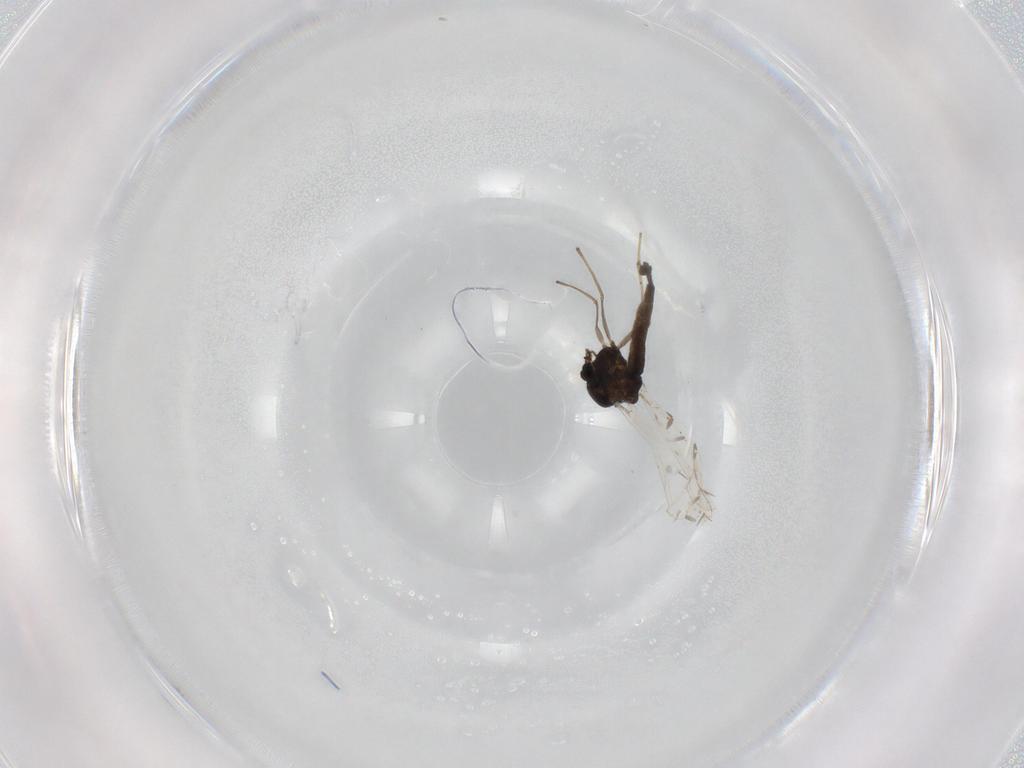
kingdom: Animalia
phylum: Arthropoda
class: Insecta
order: Diptera
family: Chironomidae
